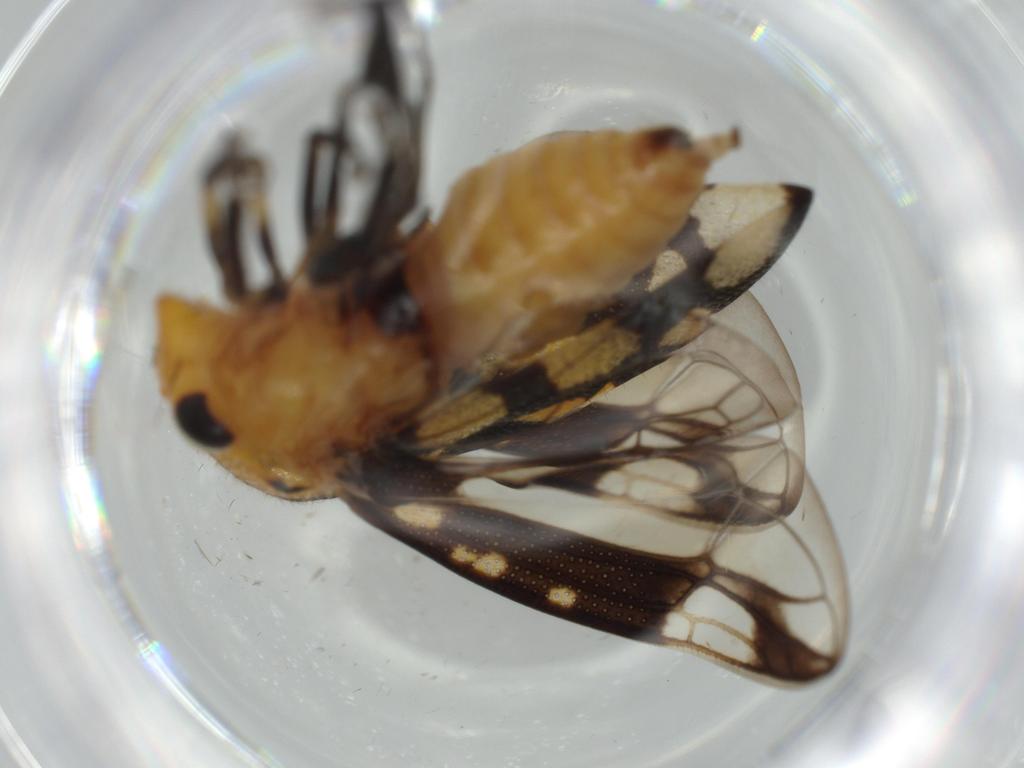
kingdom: Animalia
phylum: Arthropoda
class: Insecta
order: Hemiptera
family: Membracidae
